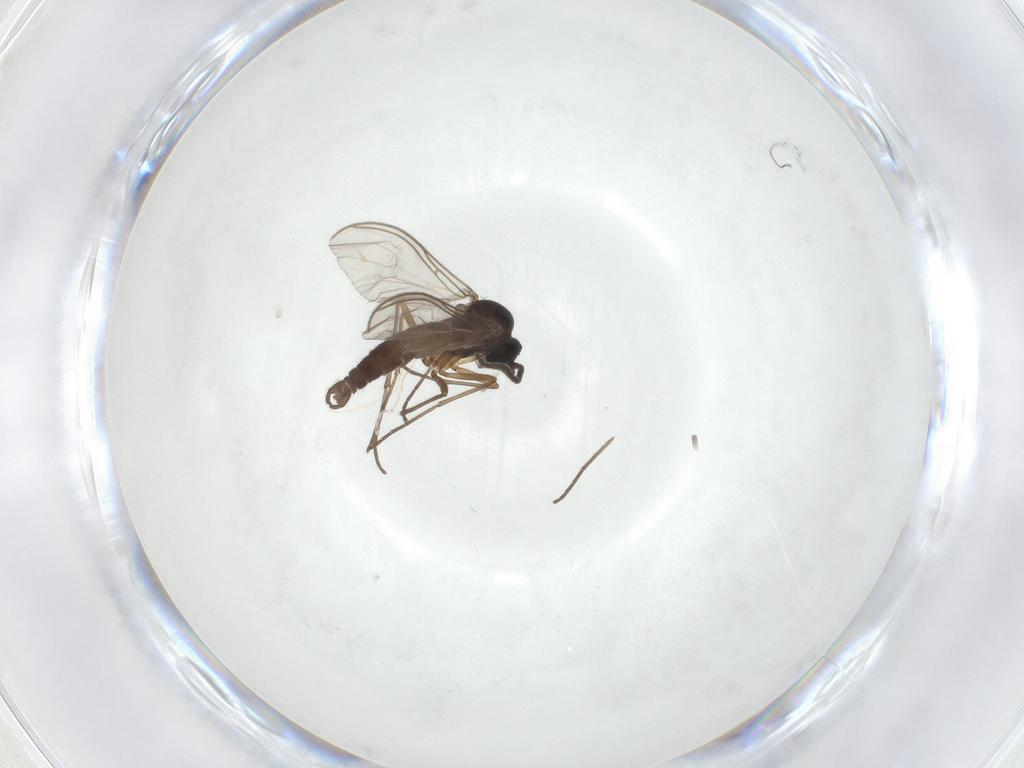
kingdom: Animalia
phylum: Arthropoda
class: Insecta
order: Diptera
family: Sciaridae
